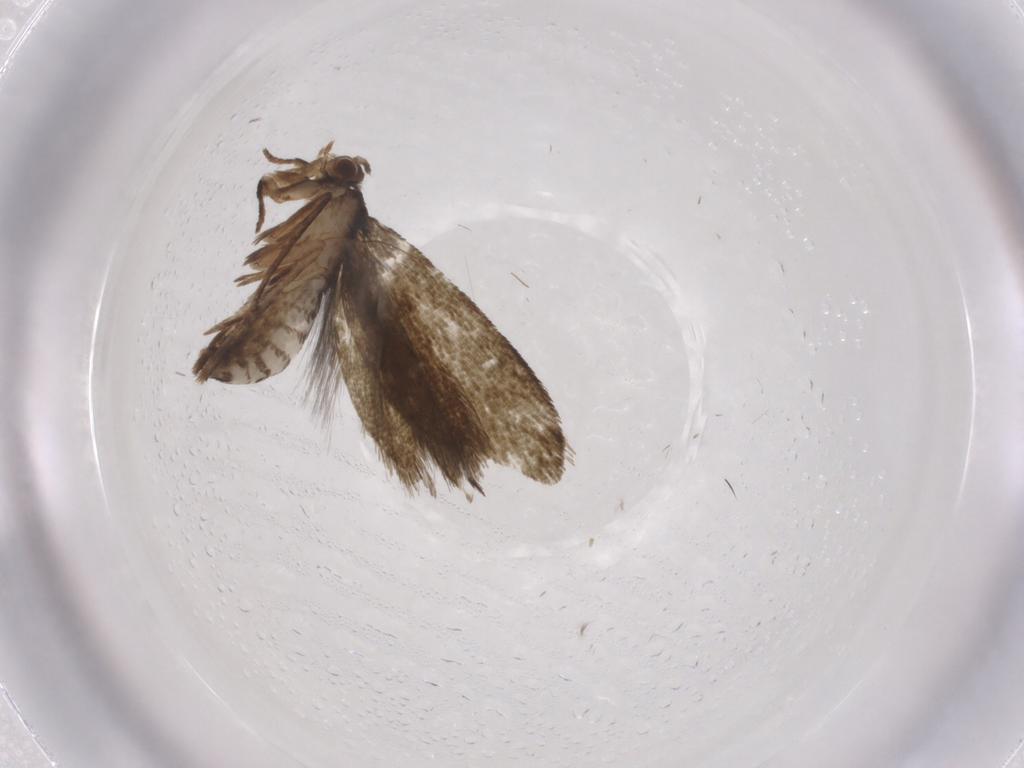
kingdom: Animalia
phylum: Arthropoda
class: Insecta
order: Lepidoptera
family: Tineidae
